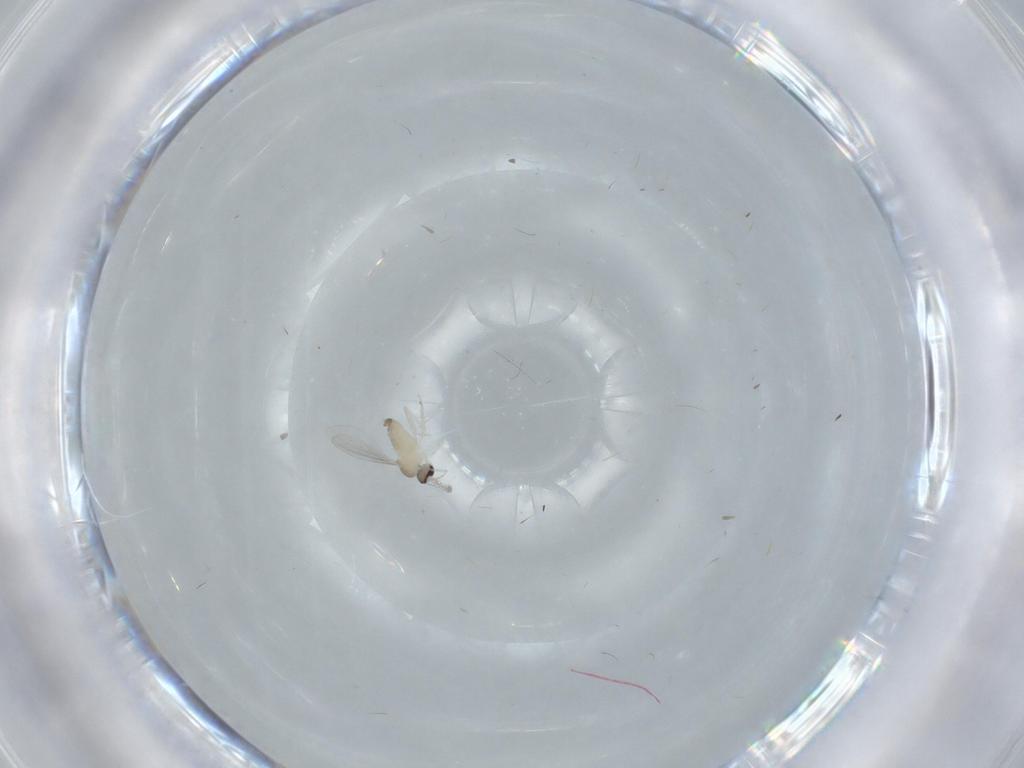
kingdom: Animalia
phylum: Arthropoda
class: Insecta
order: Diptera
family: Cecidomyiidae
